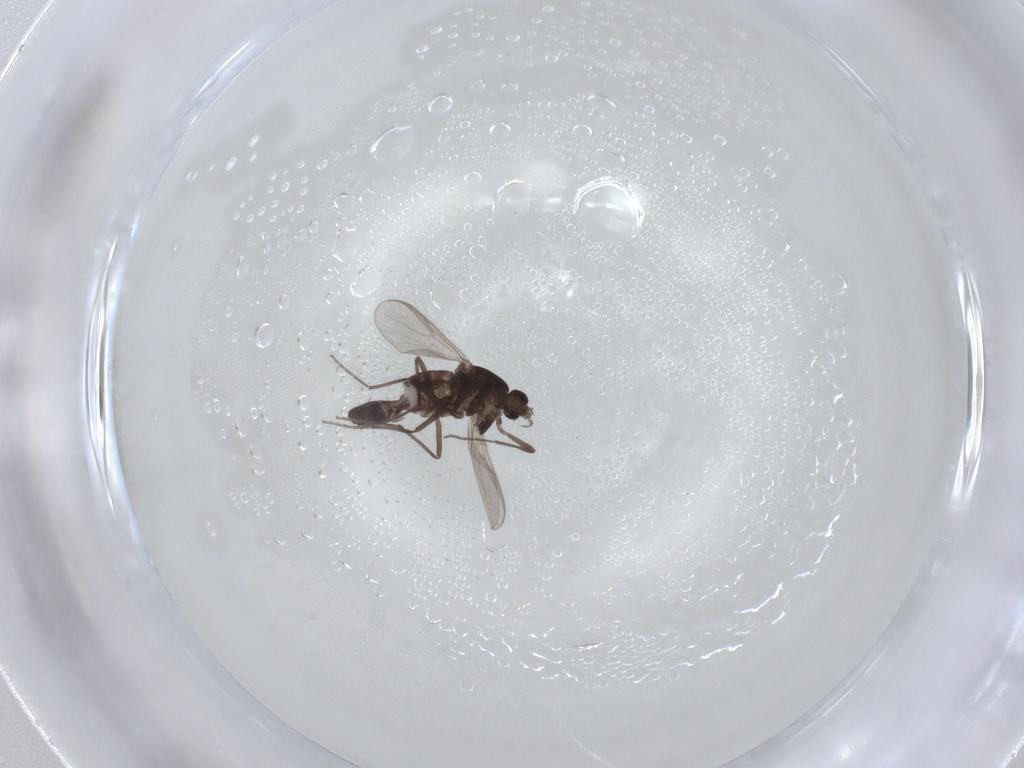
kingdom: Animalia
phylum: Arthropoda
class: Insecta
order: Diptera
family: Chironomidae
